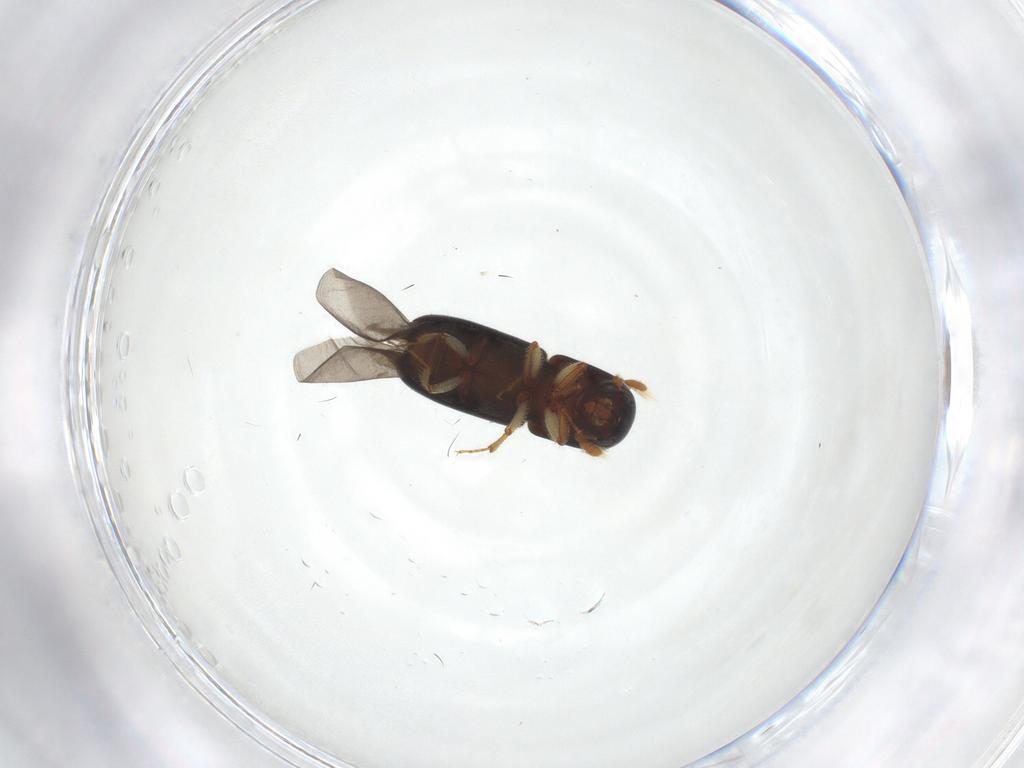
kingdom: Animalia
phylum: Arthropoda
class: Insecta
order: Coleoptera
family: Curculionidae
